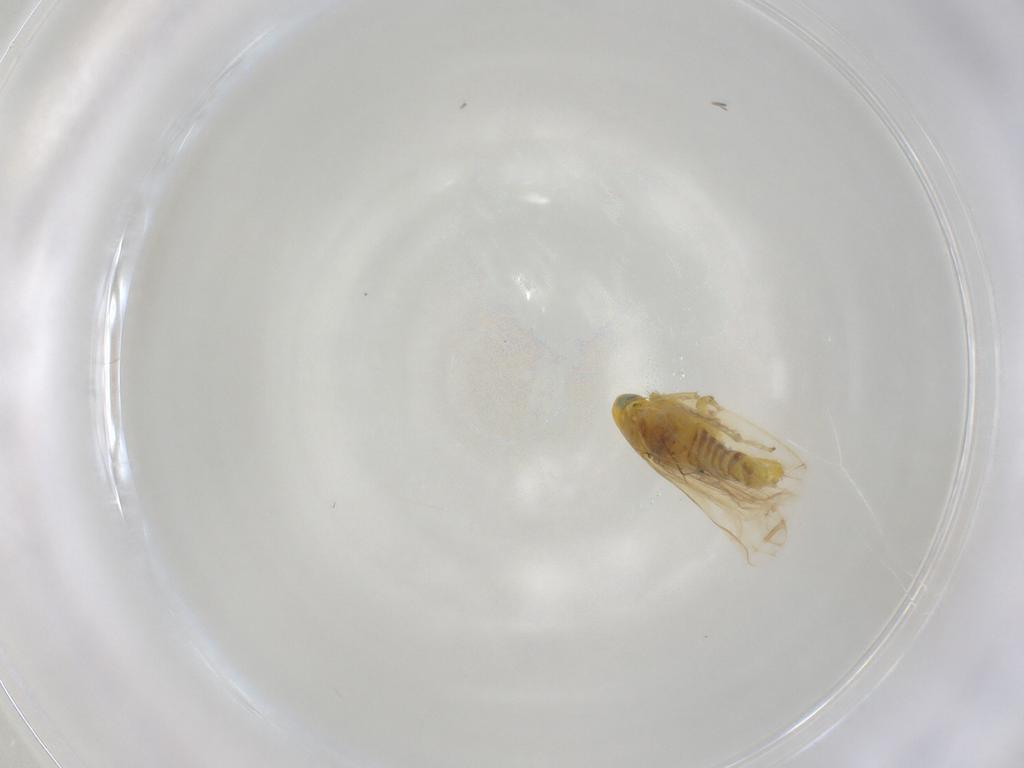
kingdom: Animalia
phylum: Arthropoda
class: Insecta
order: Hemiptera
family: Cicadellidae
